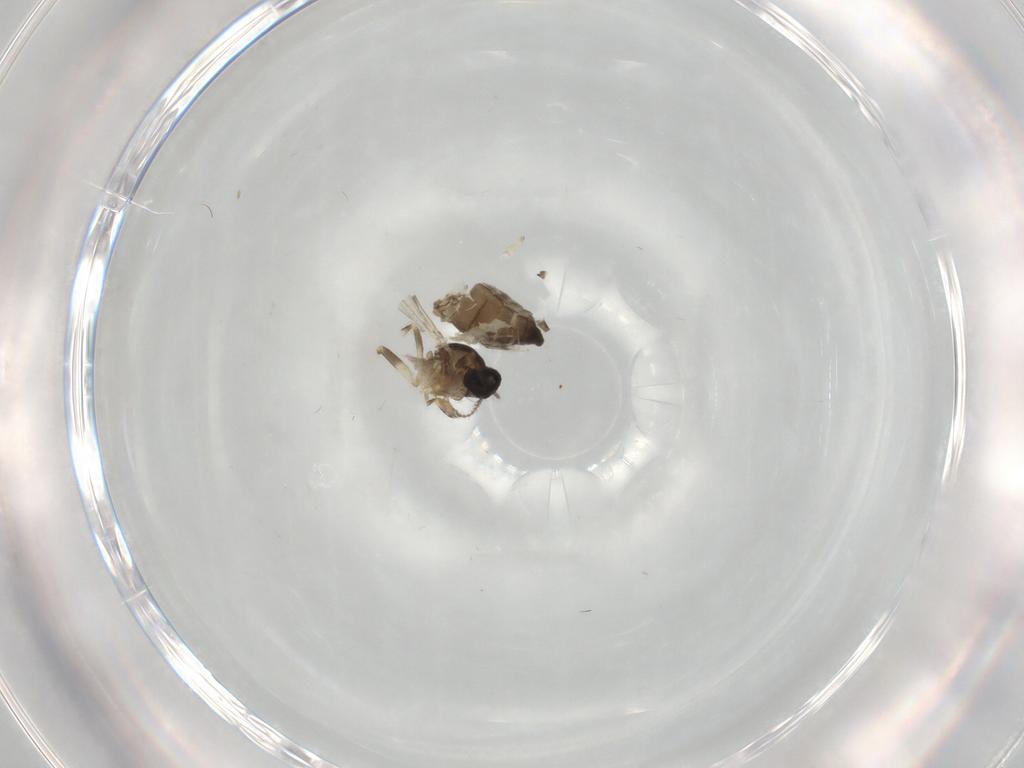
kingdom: Animalia
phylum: Arthropoda
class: Insecta
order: Diptera
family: Ceratopogonidae
